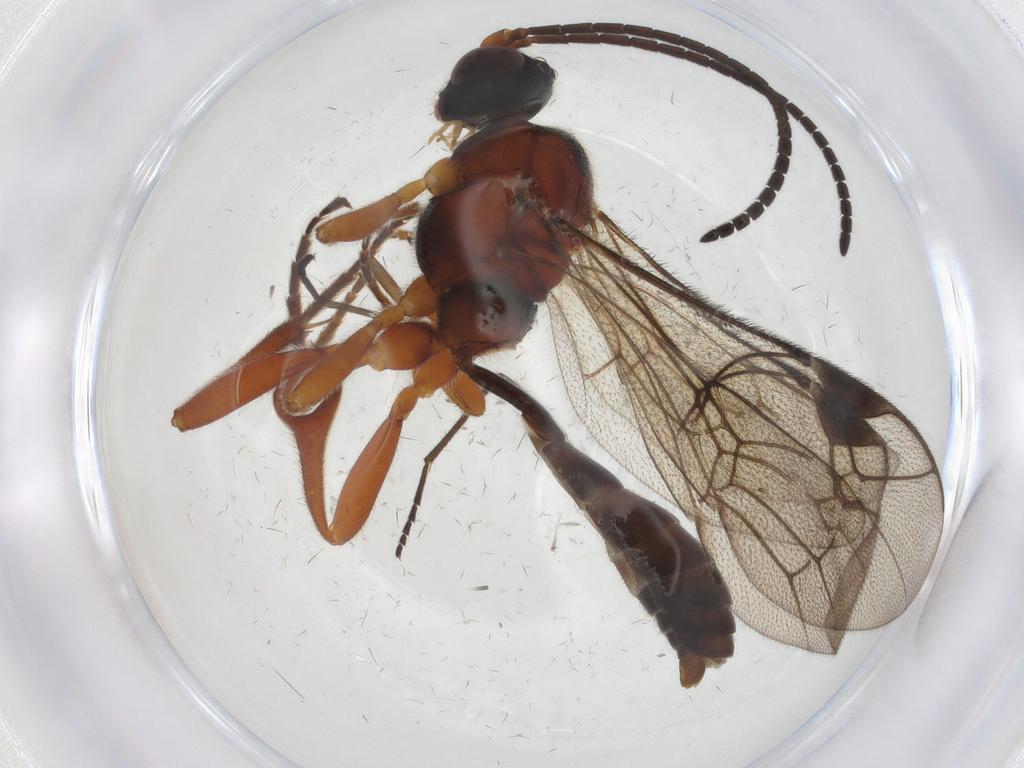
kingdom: Animalia
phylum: Arthropoda
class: Insecta
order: Hymenoptera
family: Ichneumonidae
